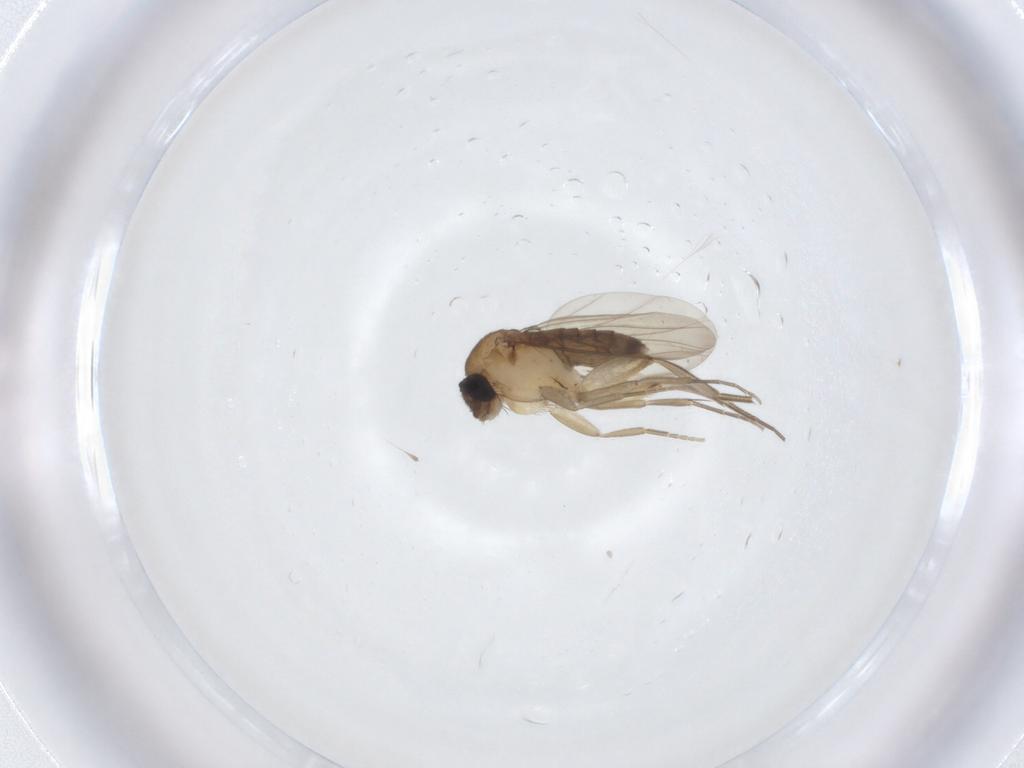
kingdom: Animalia
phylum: Arthropoda
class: Insecta
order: Diptera
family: Phoridae
